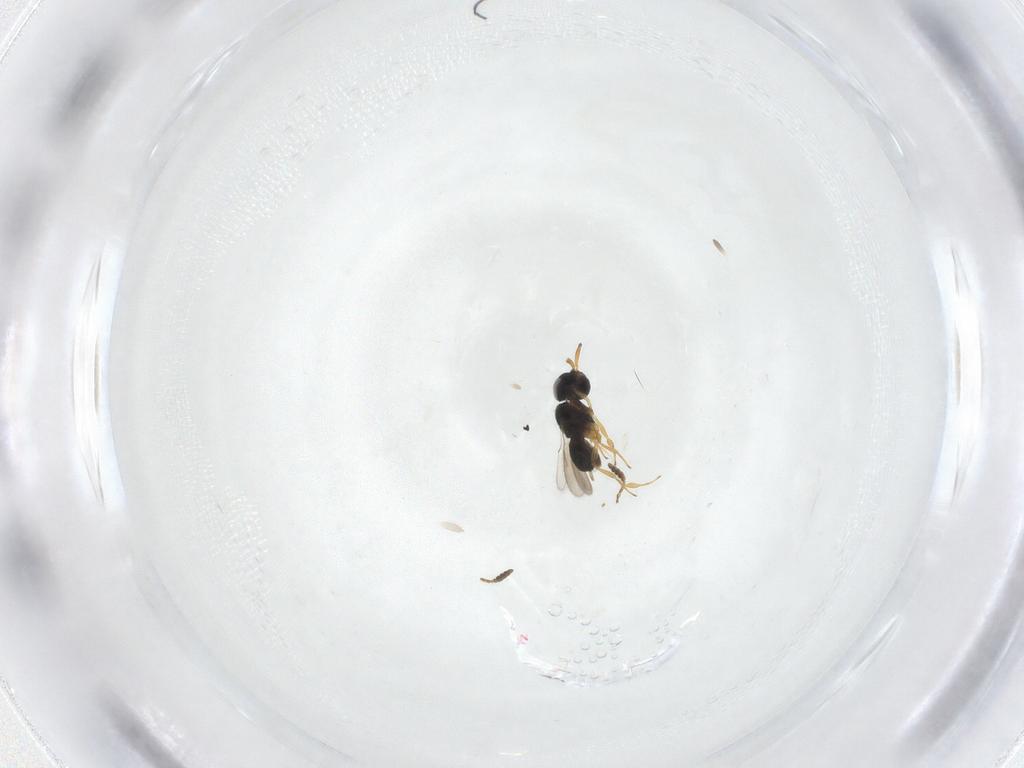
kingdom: Animalia
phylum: Arthropoda
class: Insecta
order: Hymenoptera
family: Scelionidae
